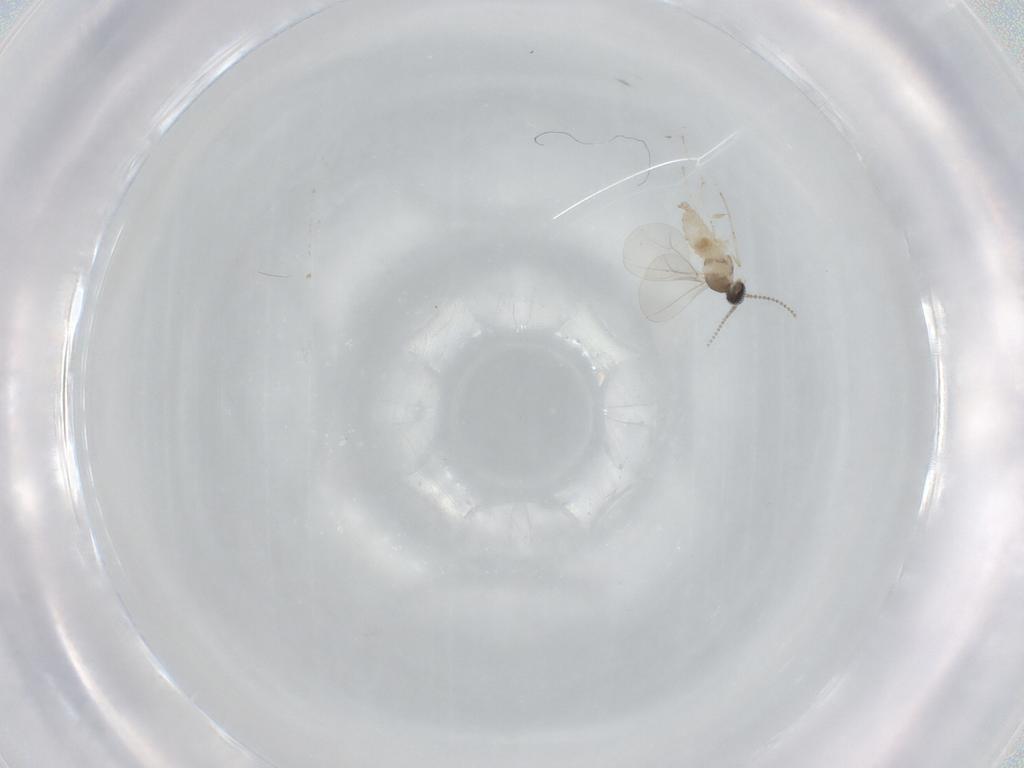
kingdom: Animalia
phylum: Arthropoda
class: Insecta
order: Diptera
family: Cecidomyiidae
